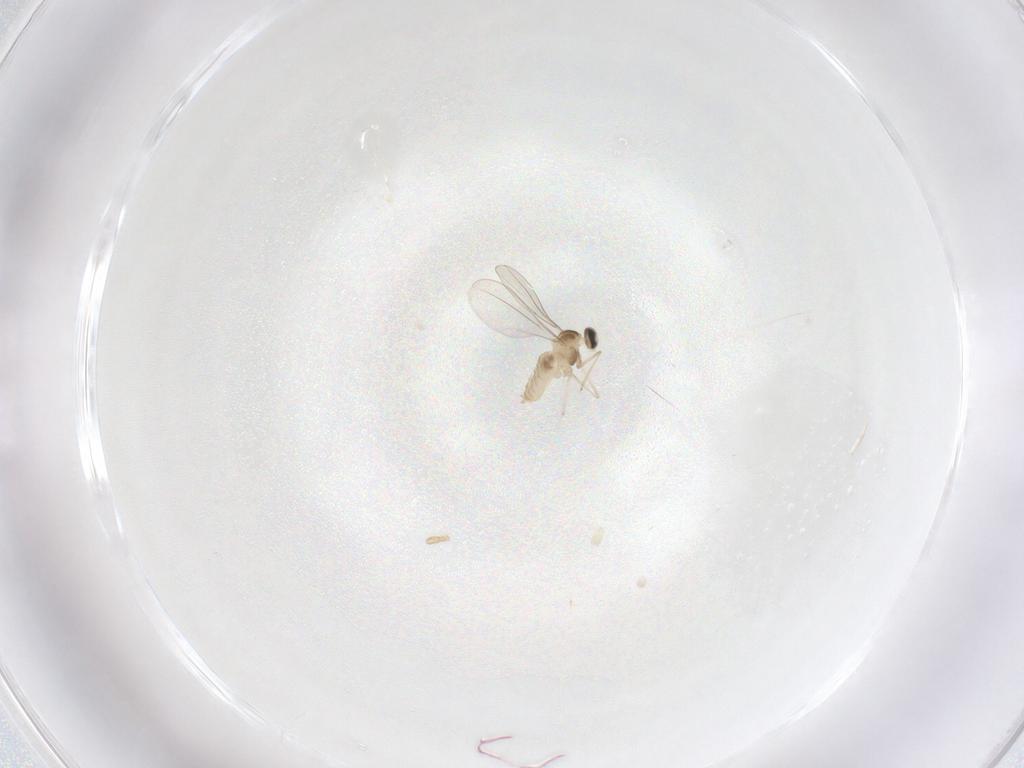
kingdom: Animalia
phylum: Arthropoda
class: Insecta
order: Diptera
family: Cecidomyiidae
